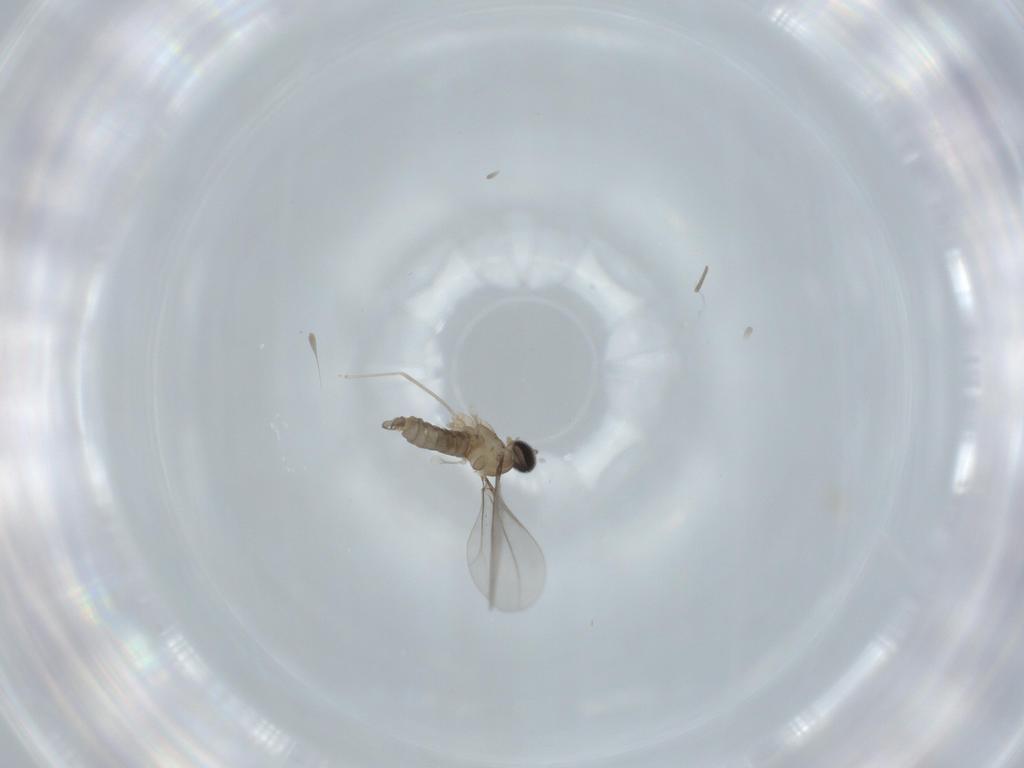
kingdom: Animalia
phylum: Arthropoda
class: Insecta
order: Diptera
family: Cecidomyiidae
